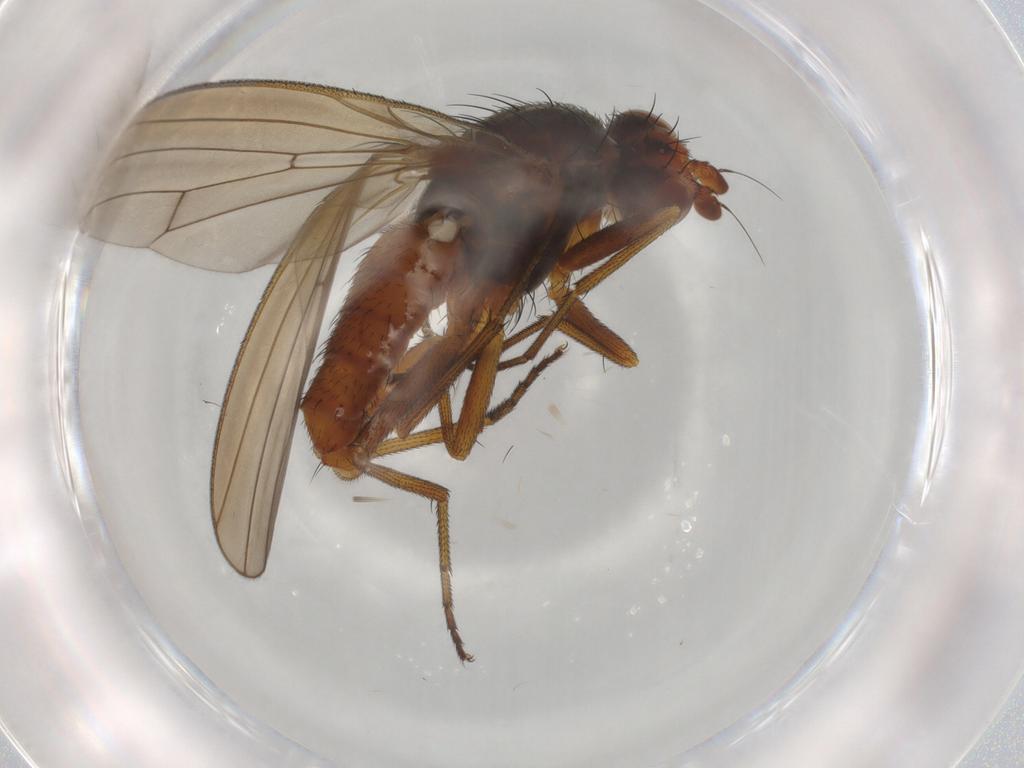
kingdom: Animalia
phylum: Arthropoda
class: Insecta
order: Diptera
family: Heleomyzidae
